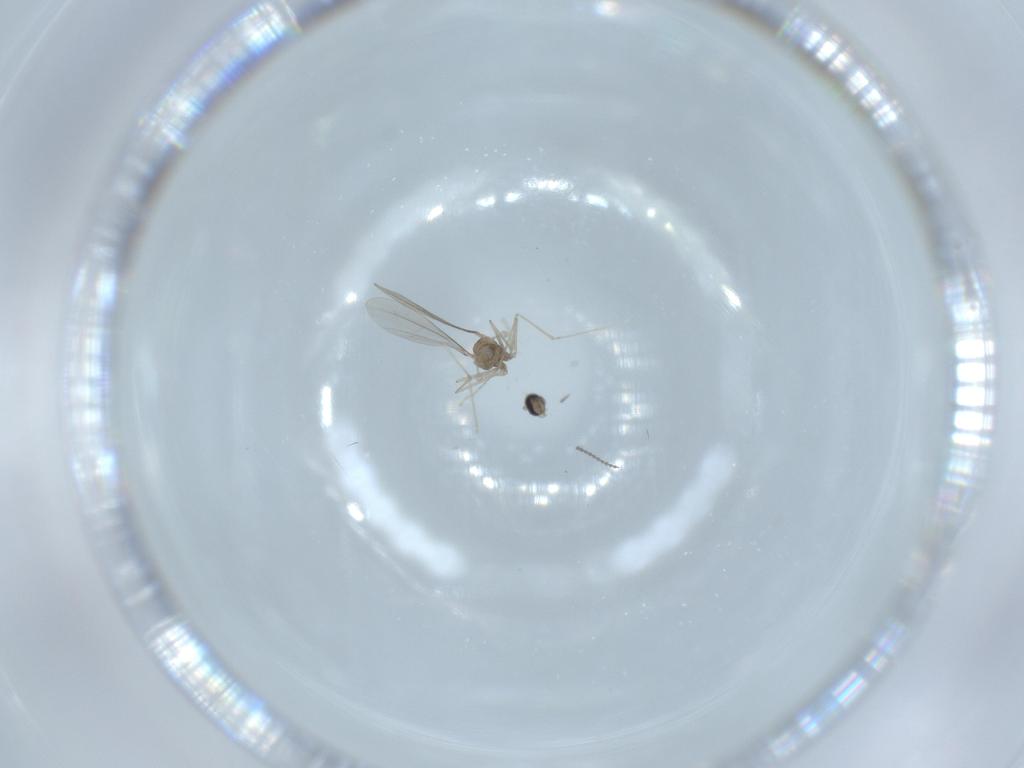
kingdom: Animalia
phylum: Arthropoda
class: Insecta
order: Diptera
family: Cecidomyiidae
